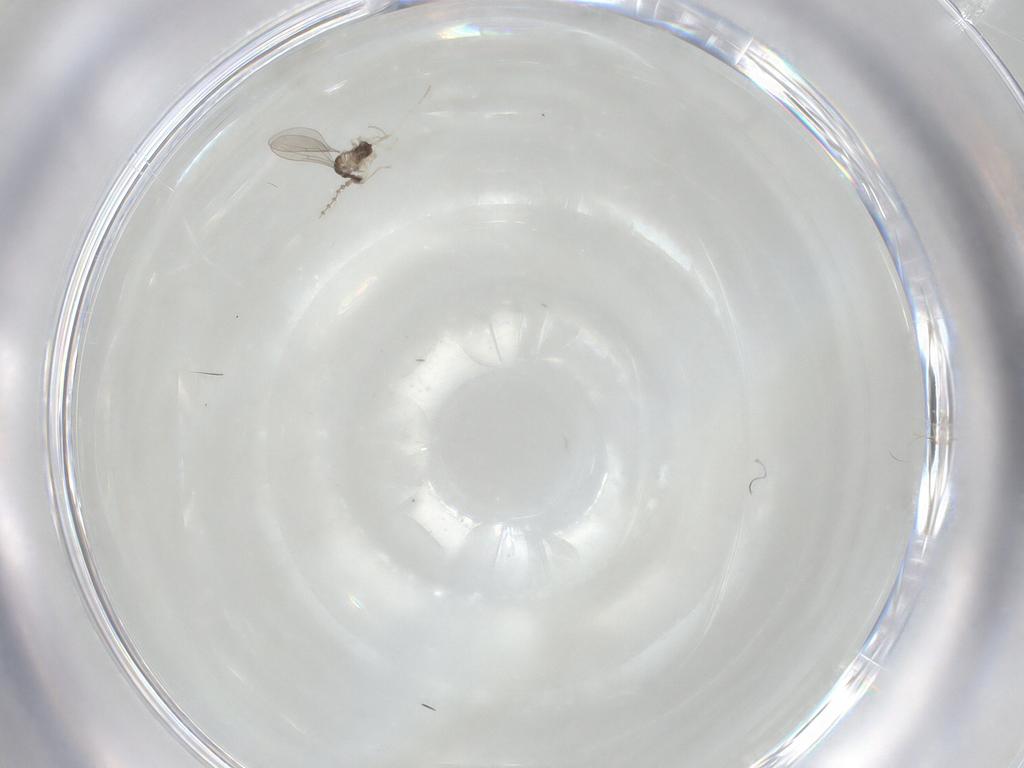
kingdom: Animalia
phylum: Arthropoda
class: Insecta
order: Diptera
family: Cecidomyiidae
